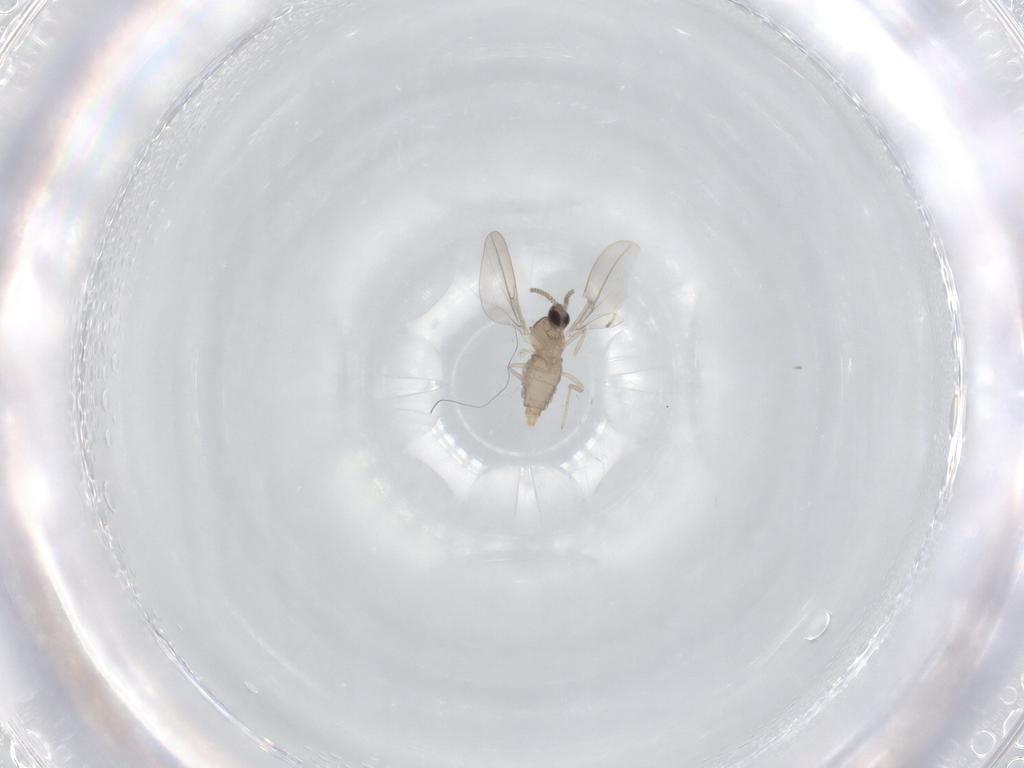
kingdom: Animalia
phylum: Arthropoda
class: Insecta
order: Diptera
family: Cecidomyiidae
